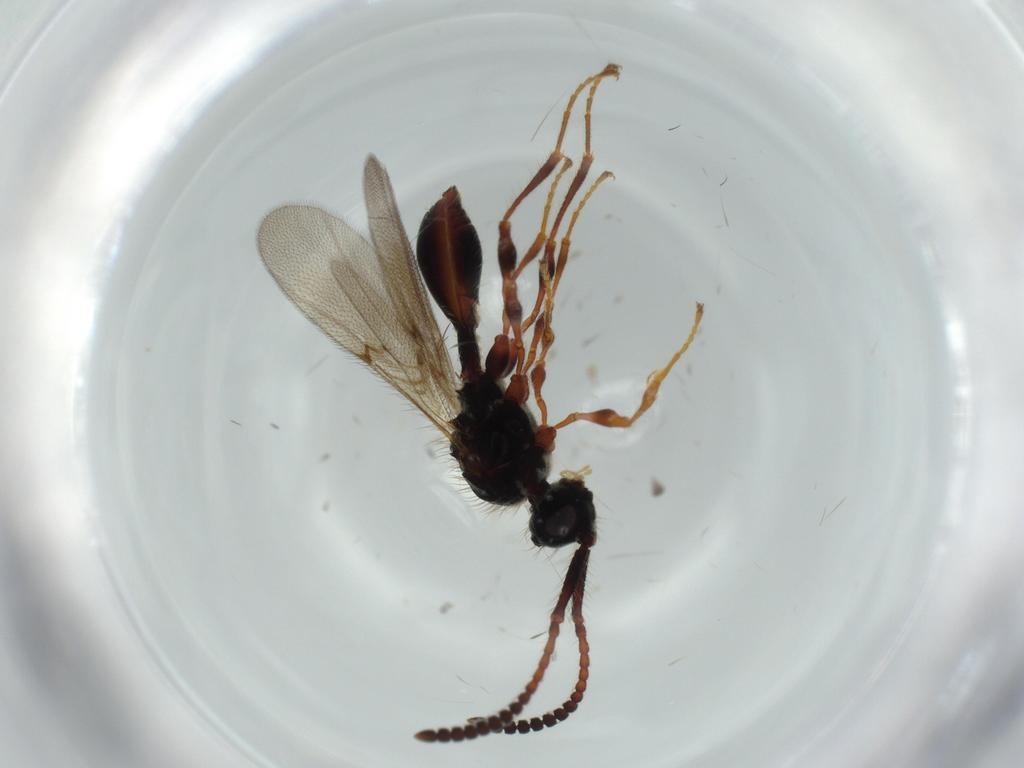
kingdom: Animalia
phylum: Arthropoda
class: Insecta
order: Hymenoptera
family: Diapriidae
